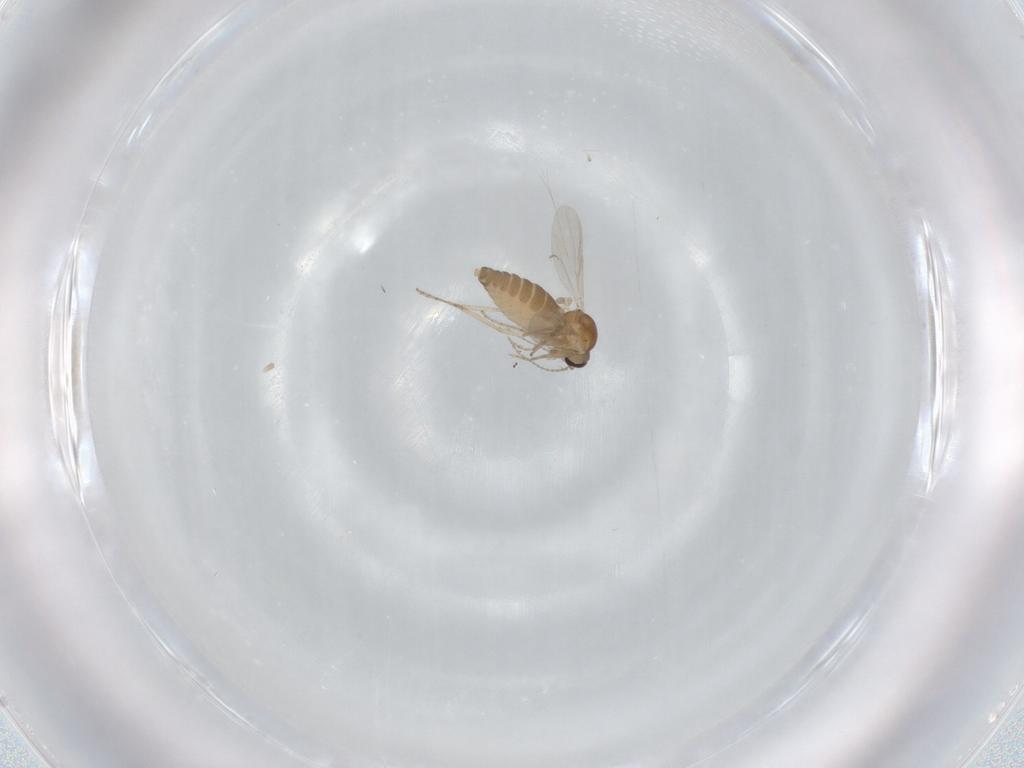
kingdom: Animalia
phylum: Arthropoda
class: Insecta
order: Diptera
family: Ceratopogonidae
